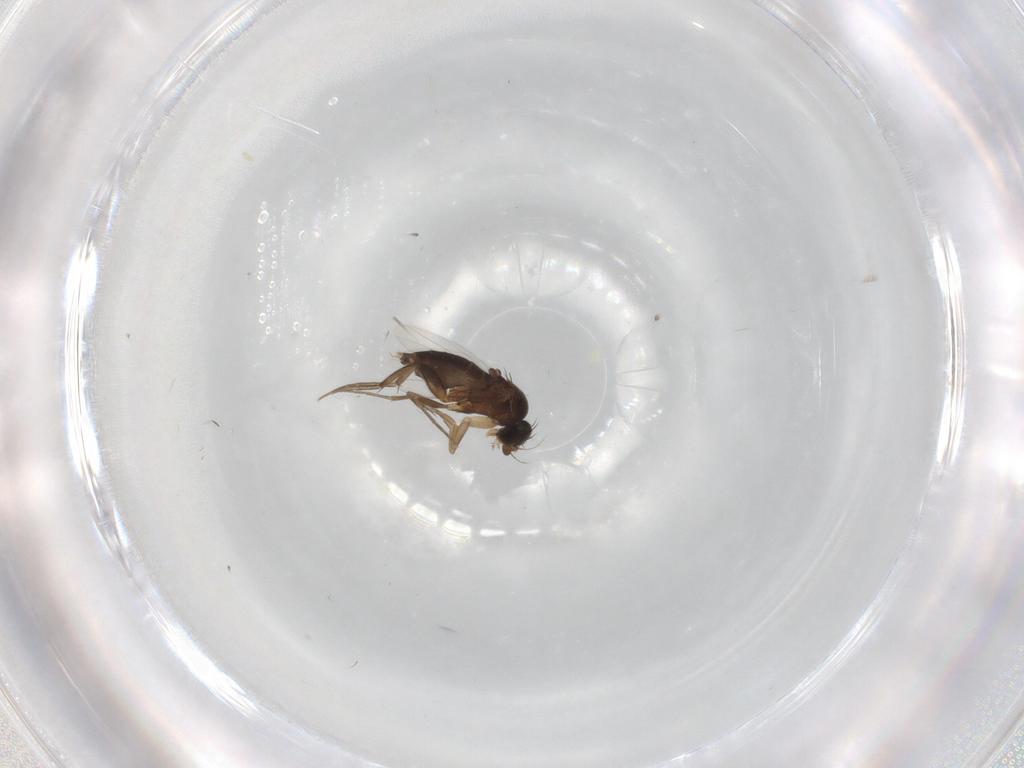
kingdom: Animalia
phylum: Arthropoda
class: Insecta
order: Diptera
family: Phoridae
